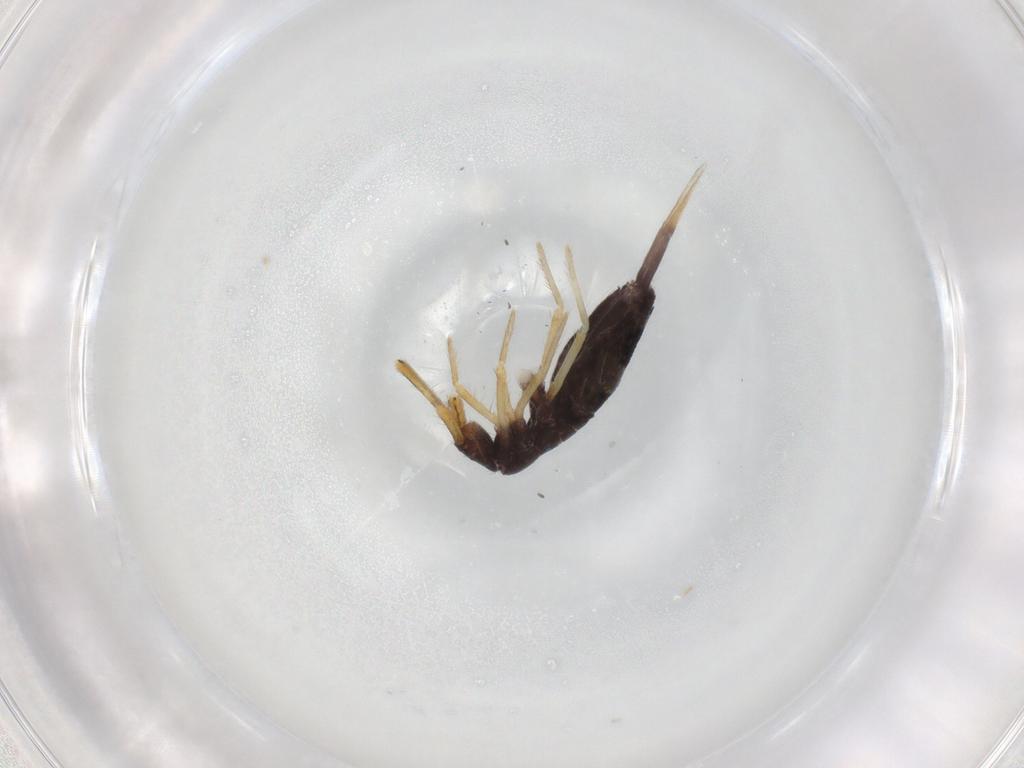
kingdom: Animalia
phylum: Arthropoda
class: Collembola
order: Entomobryomorpha
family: Entomobryidae
